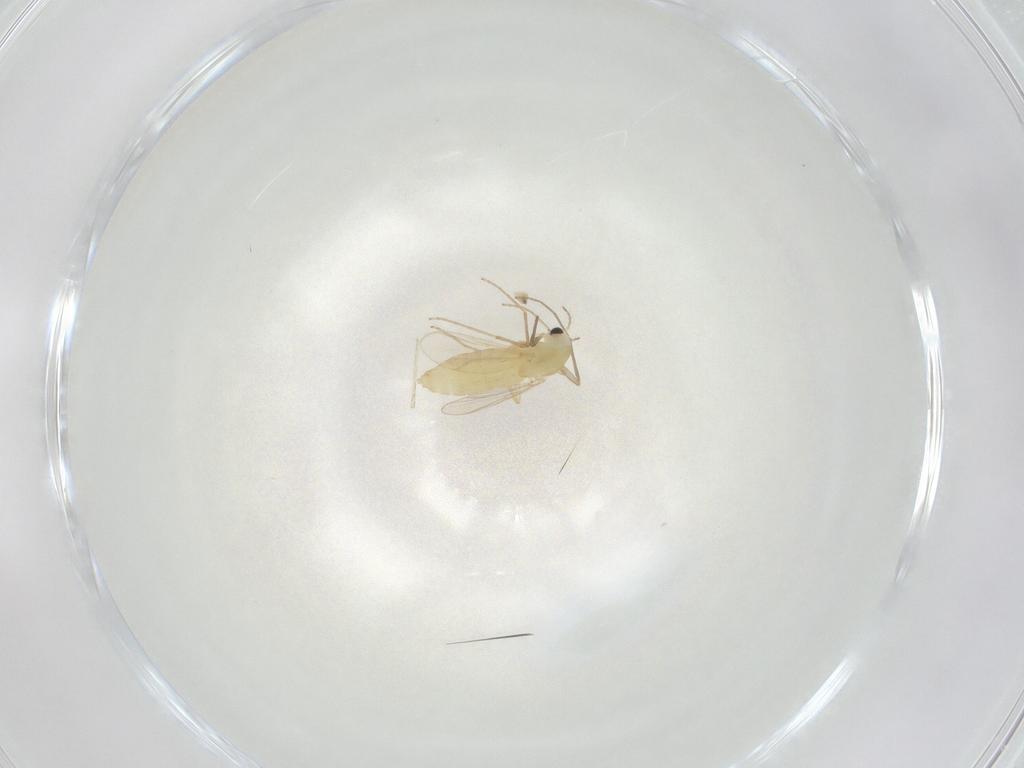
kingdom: Animalia
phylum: Arthropoda
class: Insecta
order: Diptera
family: Chironomidae
